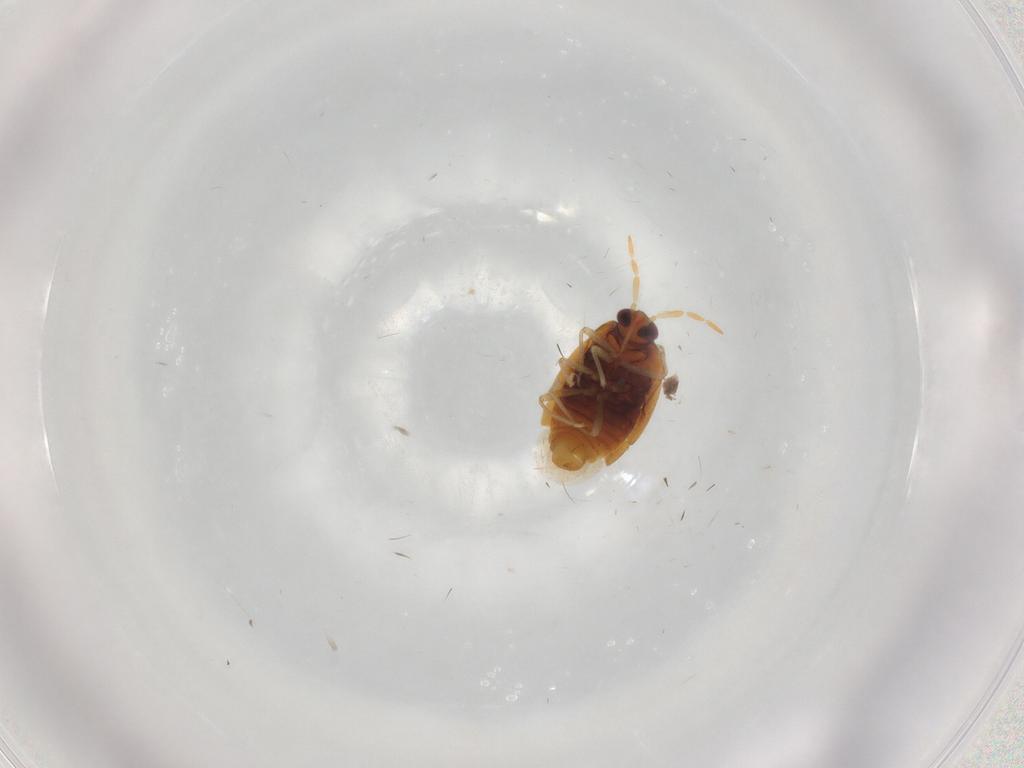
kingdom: Animalia
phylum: Arthropoda
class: Insecta
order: Hemiptera
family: Anthocoridae
